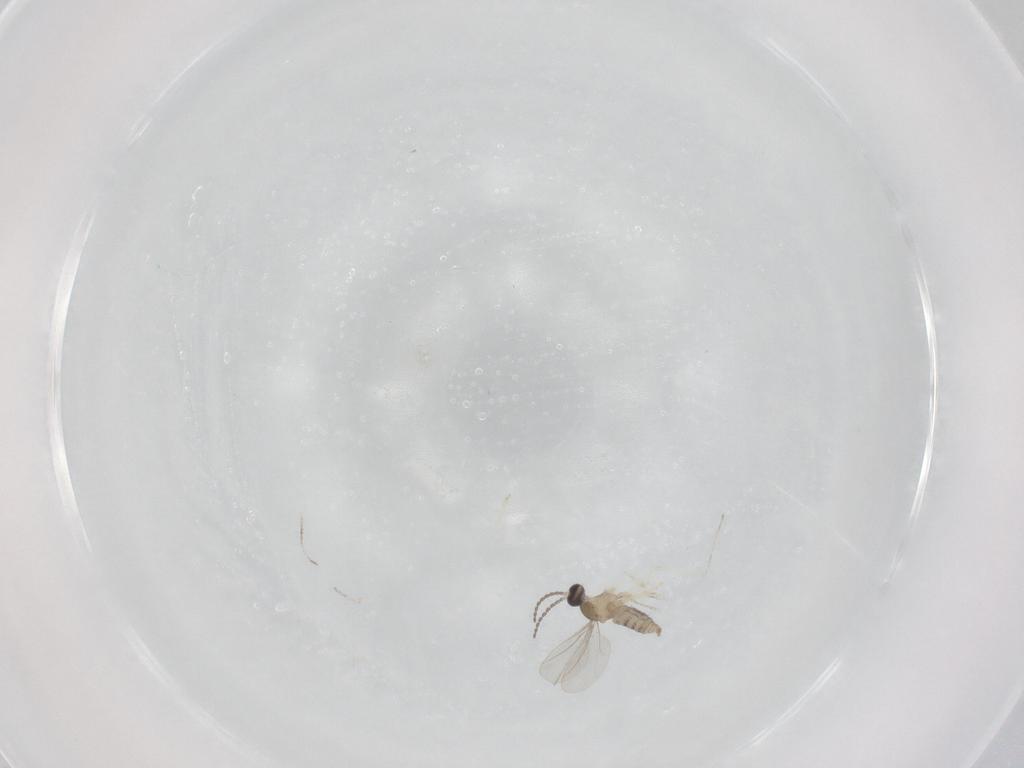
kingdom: Animalia
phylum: Arthropoda
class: Insecta
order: Diptera
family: Cecidomyiidae
